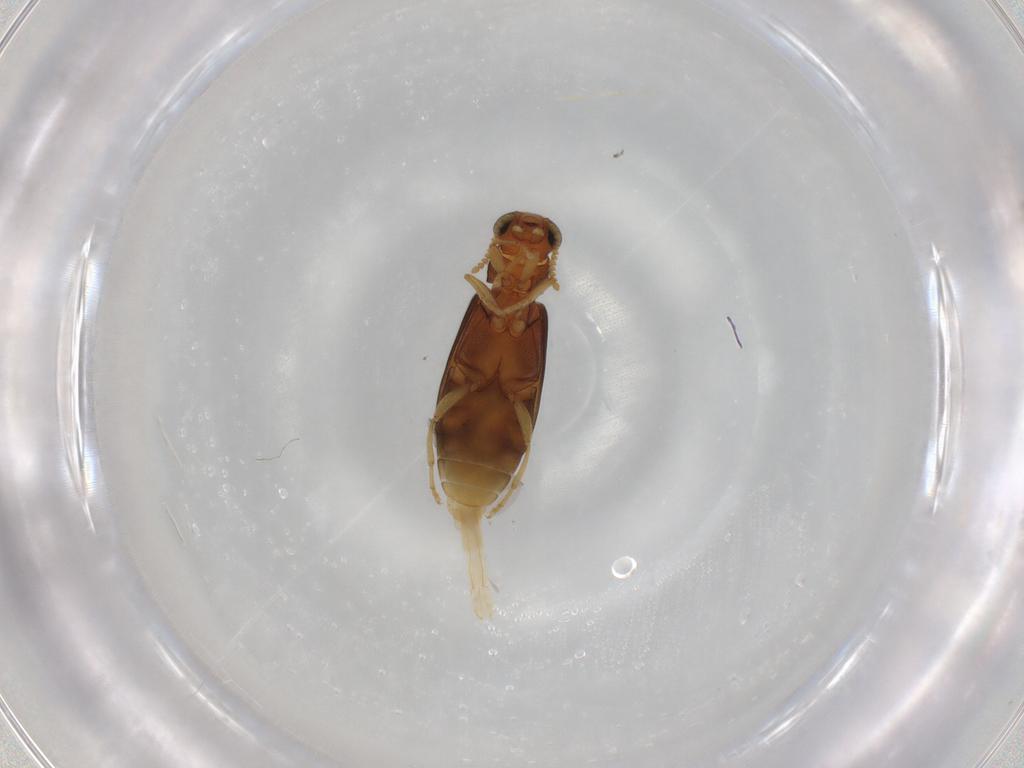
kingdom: Animalia
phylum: Arthropoda
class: Insecta
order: Coleoptera
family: Mycteridae
